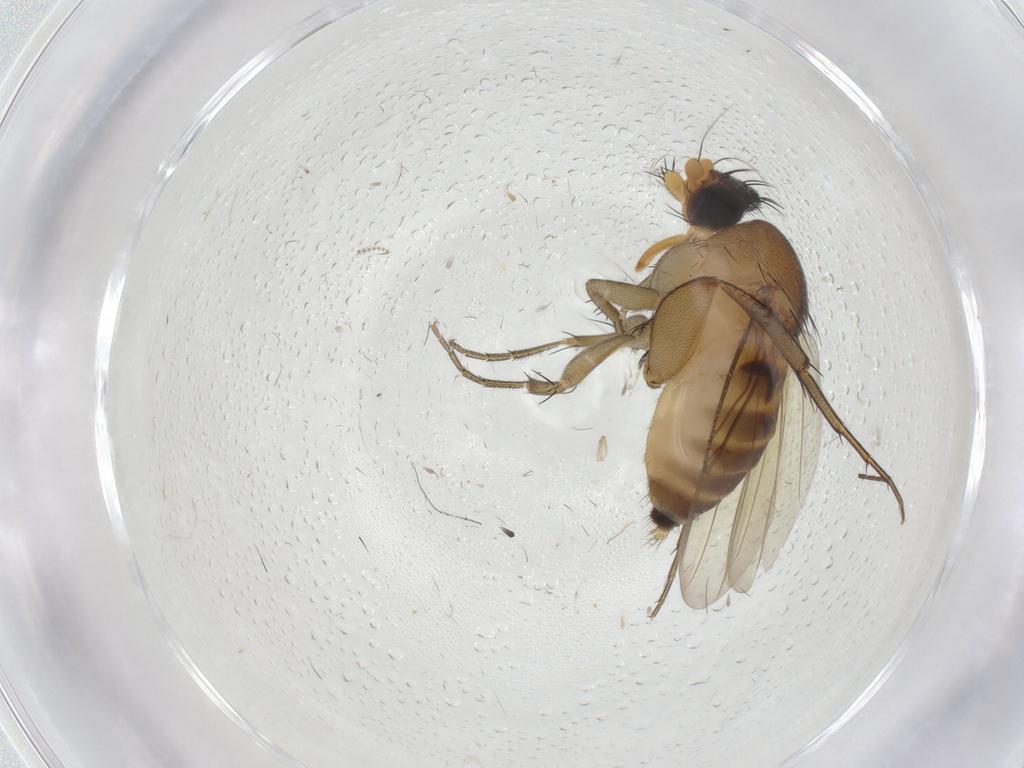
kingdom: Animalia
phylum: Arthropoda
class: Insecta
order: Diptera
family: Phoridae
